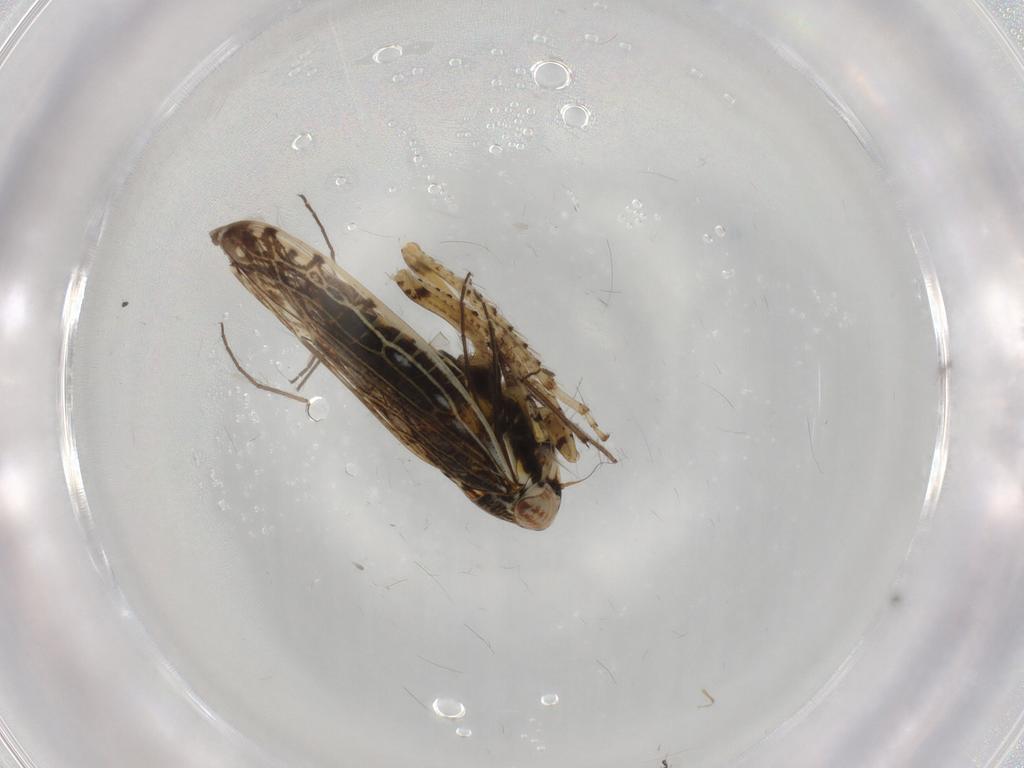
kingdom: Animalia
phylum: Arthropoda
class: Insecta
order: Hemiptera
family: Cicadellidae
